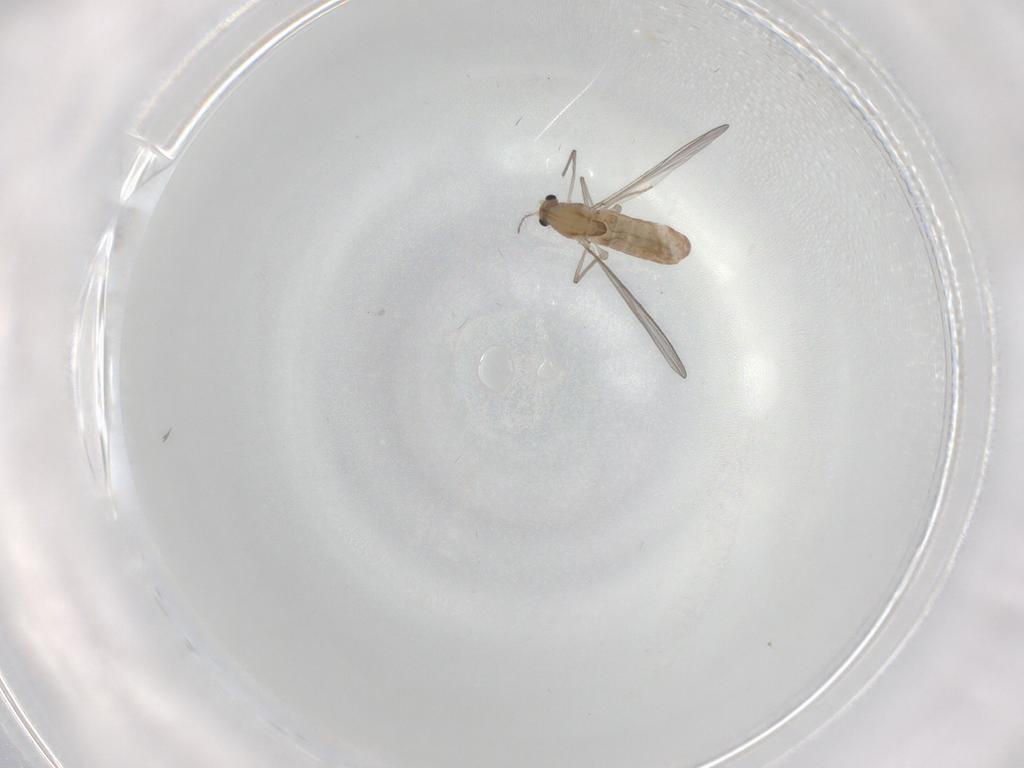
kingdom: Animalia
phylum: Arthropoda
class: Insecta
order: Diptera
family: Chironomidae
